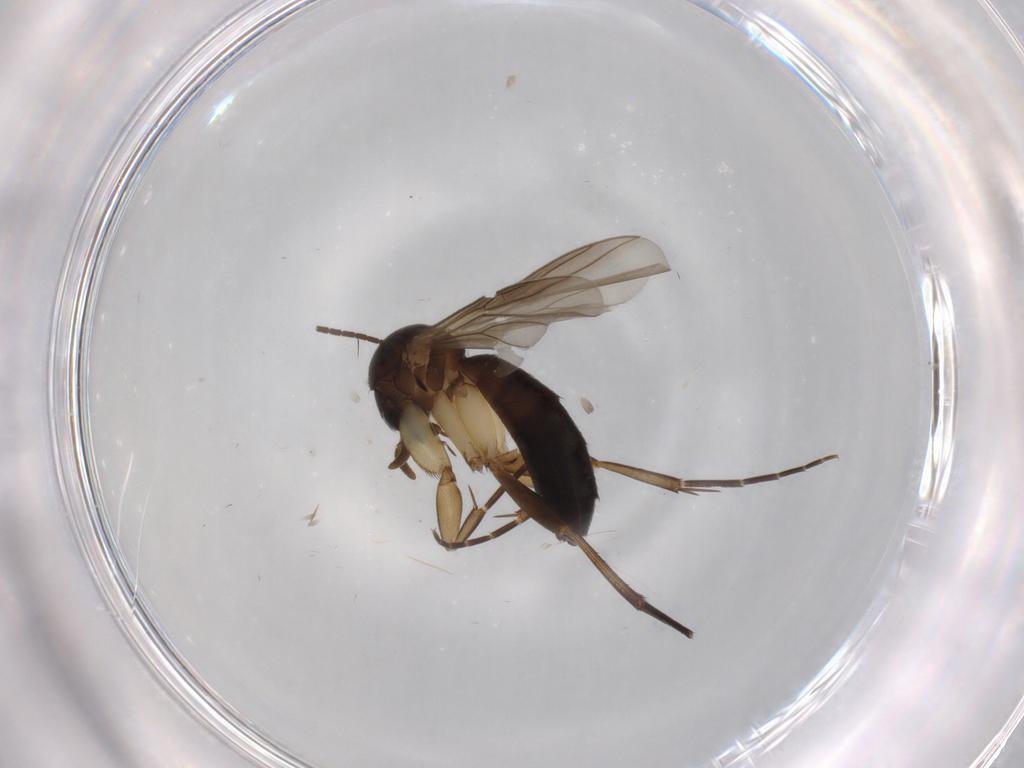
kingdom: Animalia
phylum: Arthropoda
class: Insecta
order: Diptera
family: Mycetophilidae
